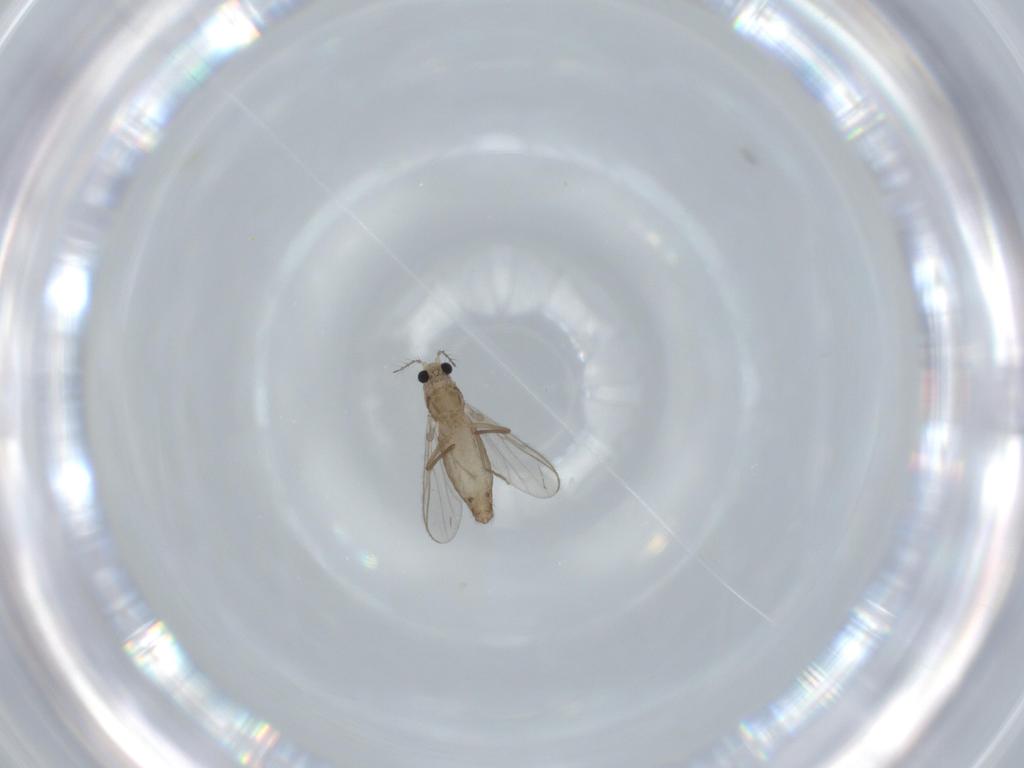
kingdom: Animalia
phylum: Arthropoda
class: Insecta
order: Diptera
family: Chironomidae
